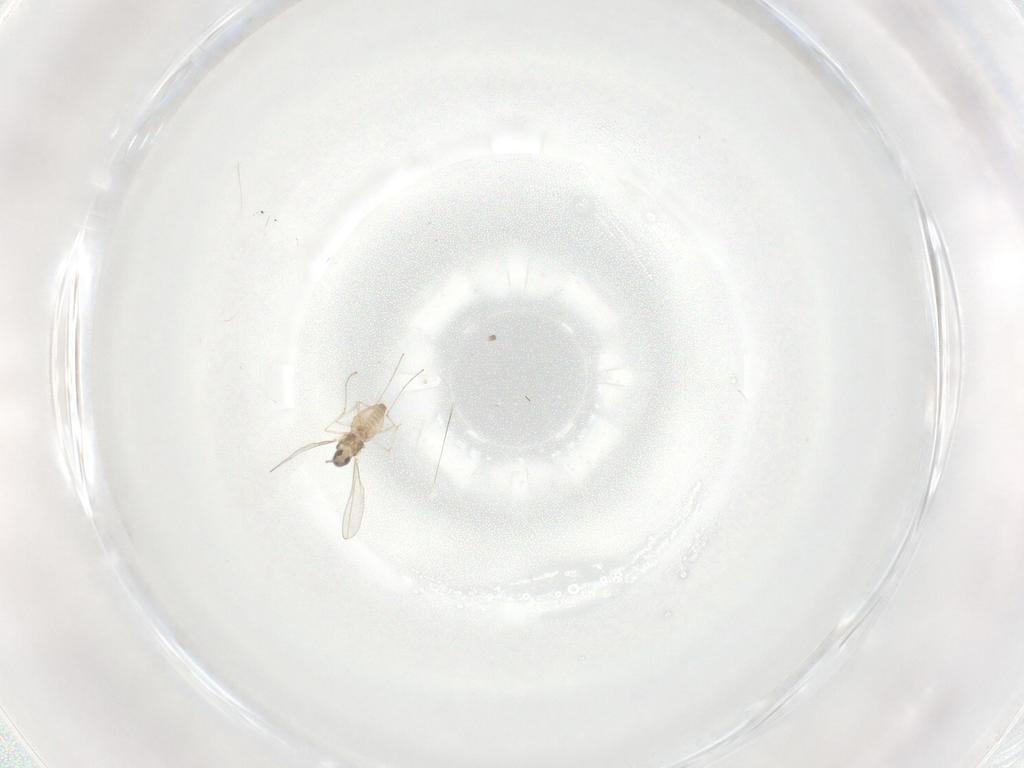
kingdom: Animalia
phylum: Arthropoda
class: Insecta
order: Diptera
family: Cecidomyiidae
